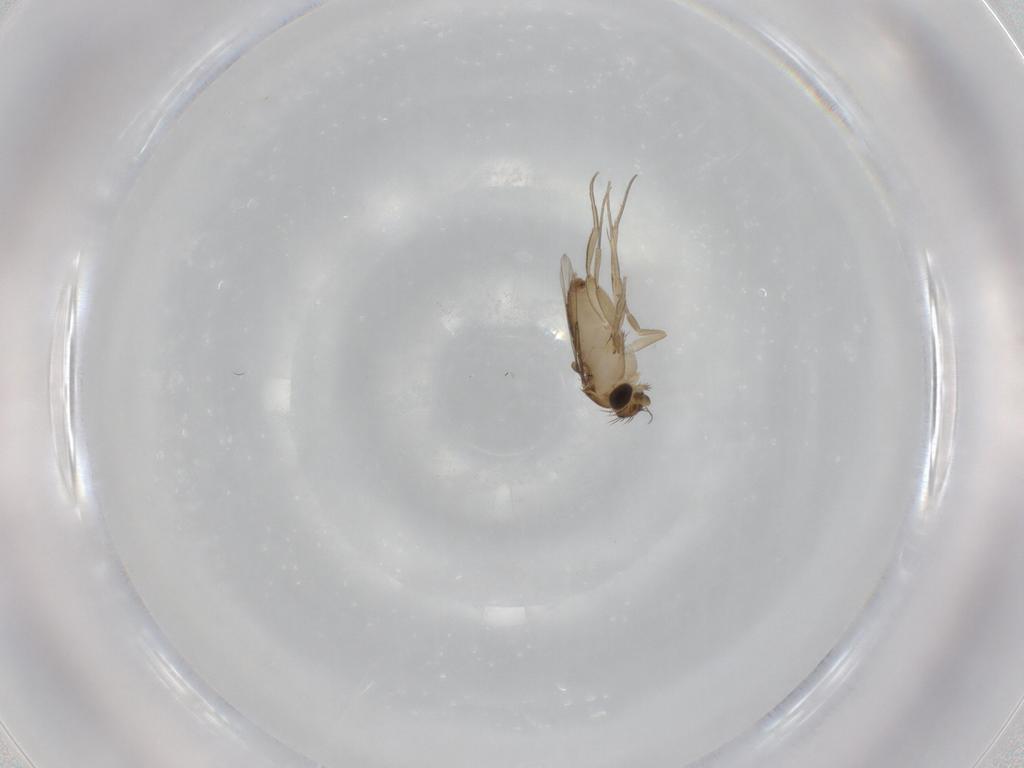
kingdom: Animalia
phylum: Arthropoda
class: Insecta
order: Diptera
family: Phoridae
